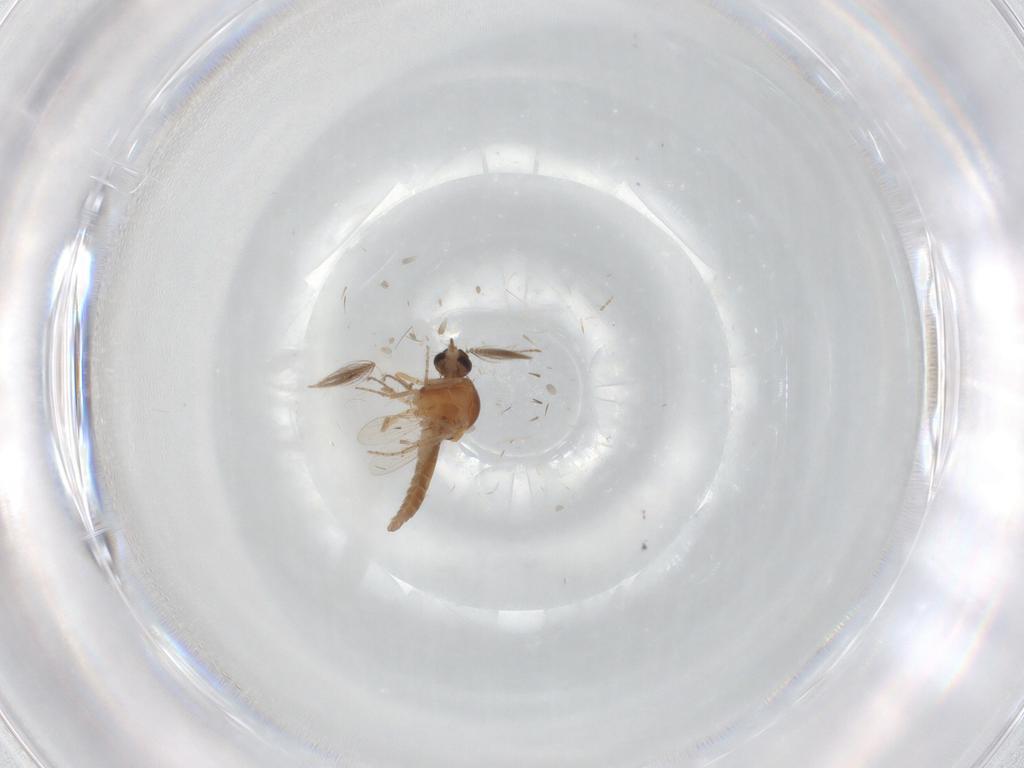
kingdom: Animalia
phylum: Arthropoda
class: Insecta
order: Diptera
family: Ceratopogonidae
